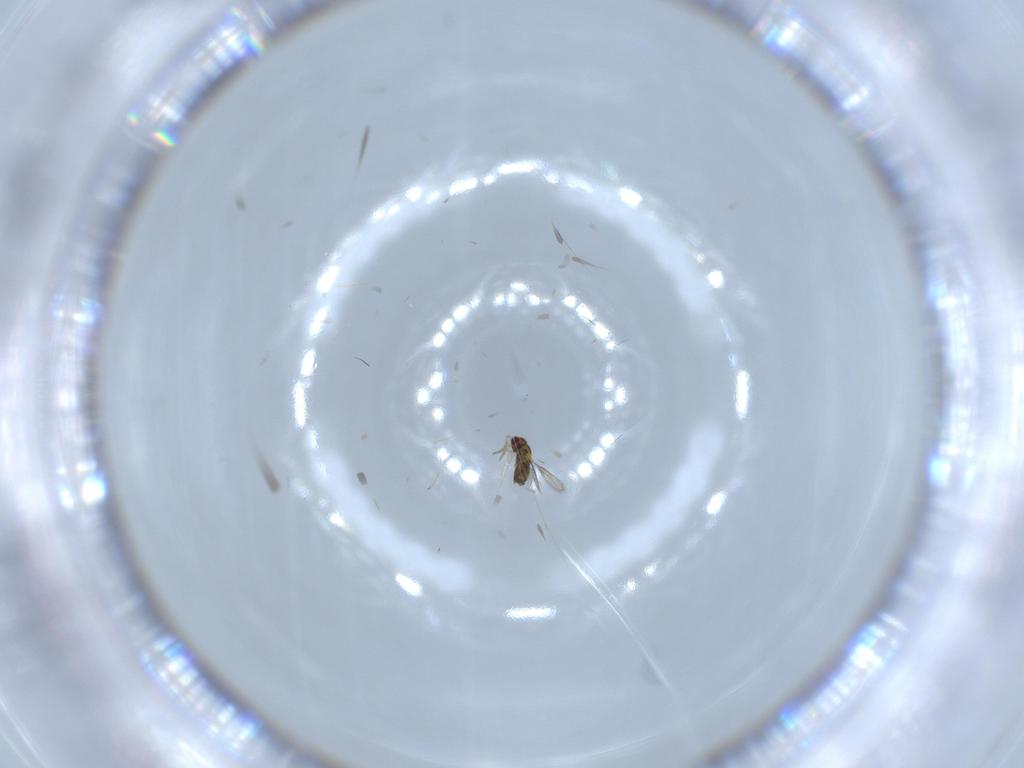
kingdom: Animalia
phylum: Arthropoda
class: Insecta
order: Hymenoptera
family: Aphelinidae
